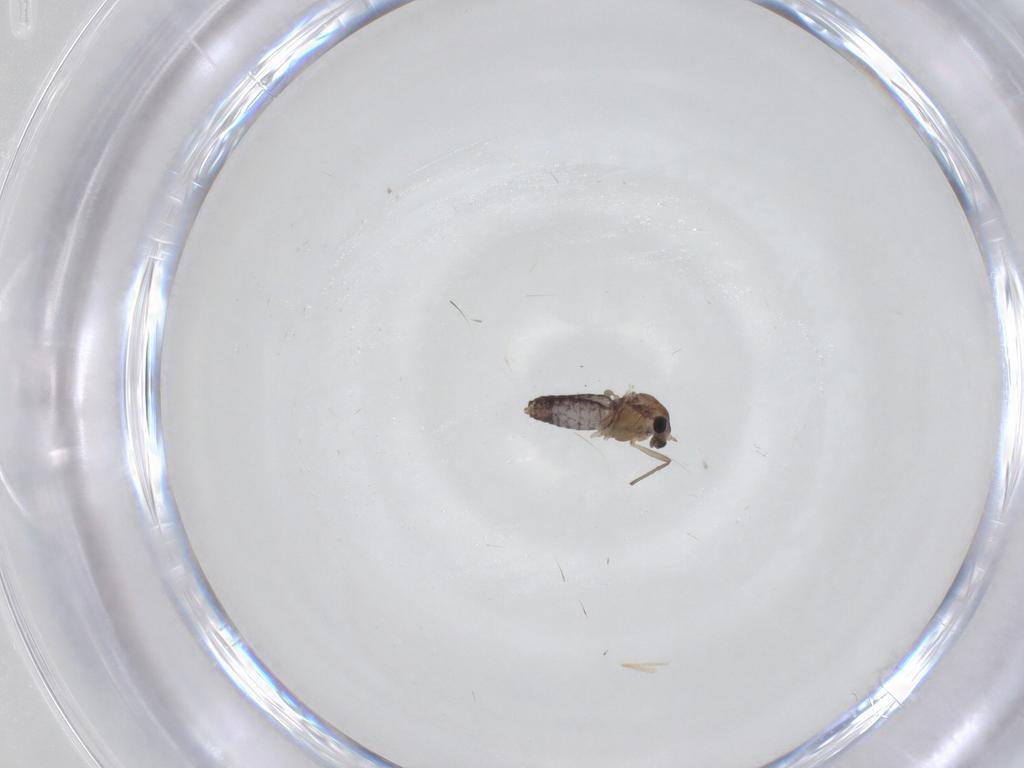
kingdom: Animalia
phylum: Arthropoda
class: Insecta
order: Diptera
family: Chironomidae
